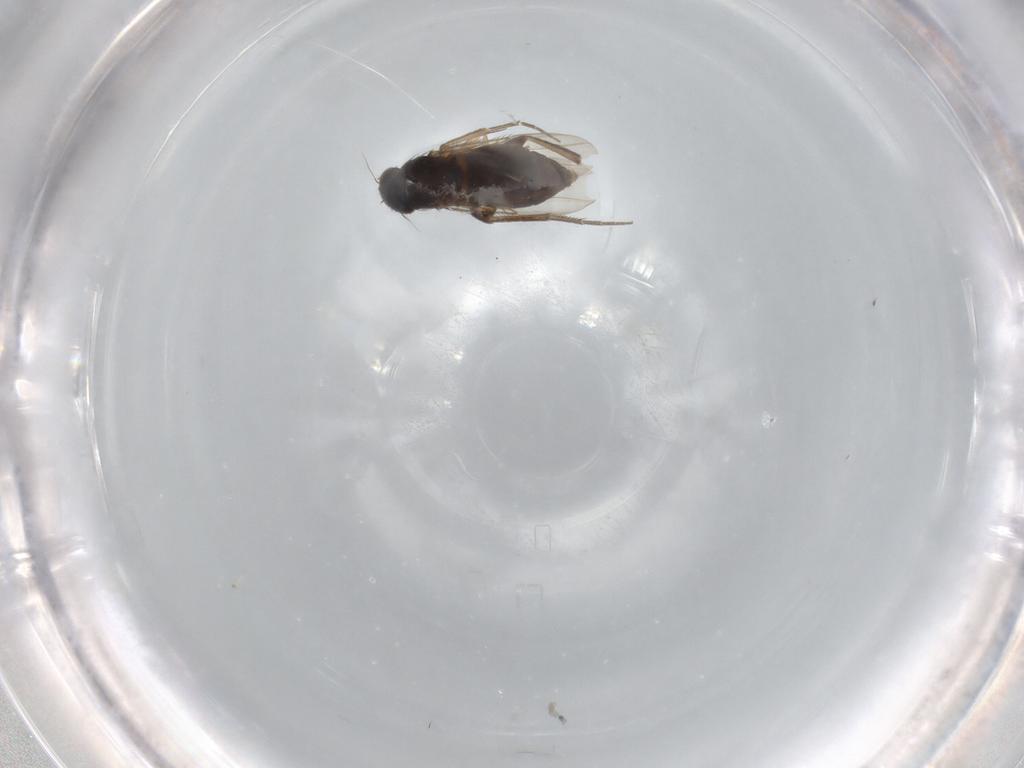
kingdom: Animalia
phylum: Arthropoda
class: Insecta
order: Diptera
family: Phoridae
